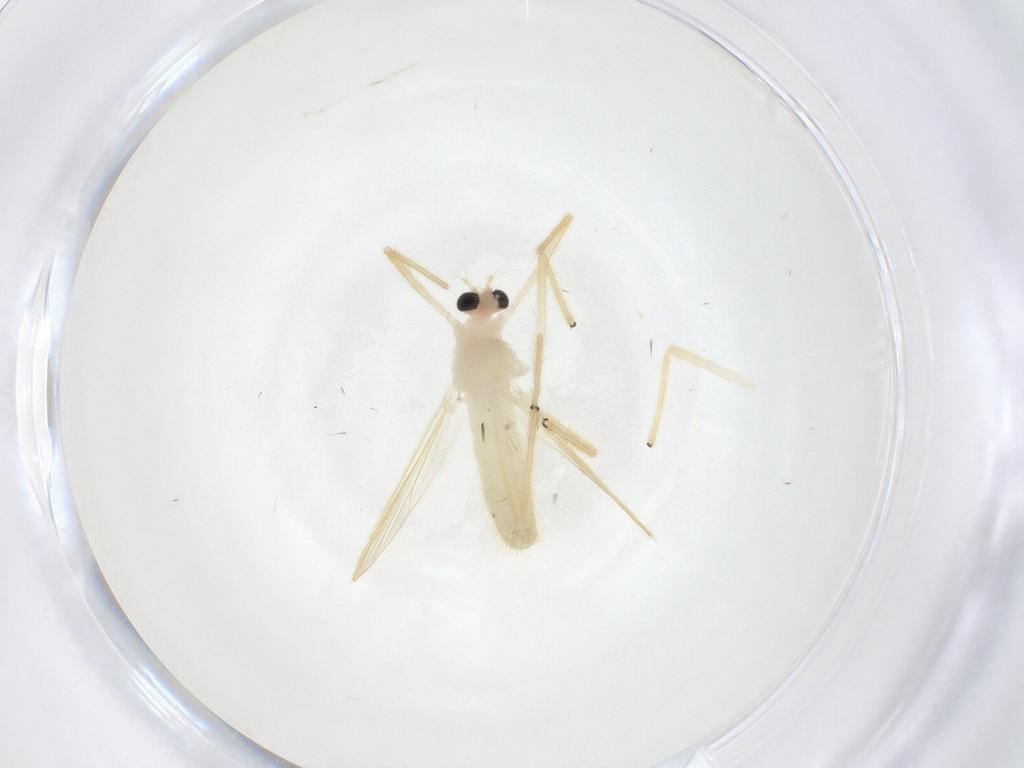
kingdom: Animalia
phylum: Arthropoda
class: Insecta
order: Diptera
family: Chironomidae
